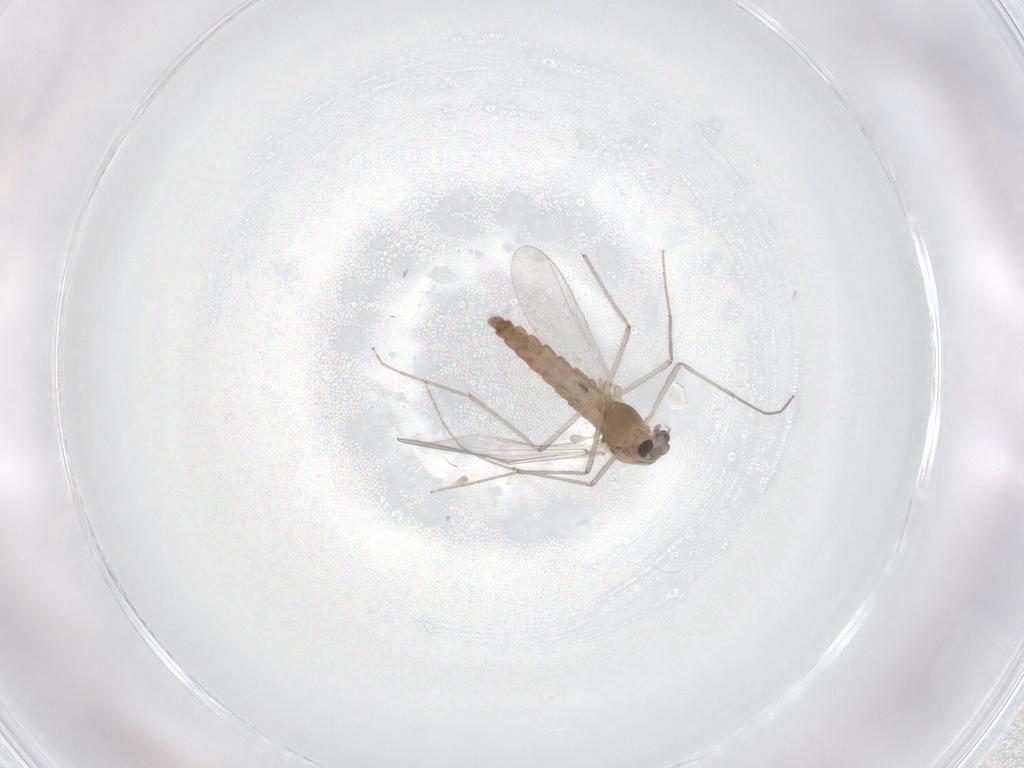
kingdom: Animalia
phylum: Arthropoda
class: Insecta
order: Diptera
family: Chironomidae
